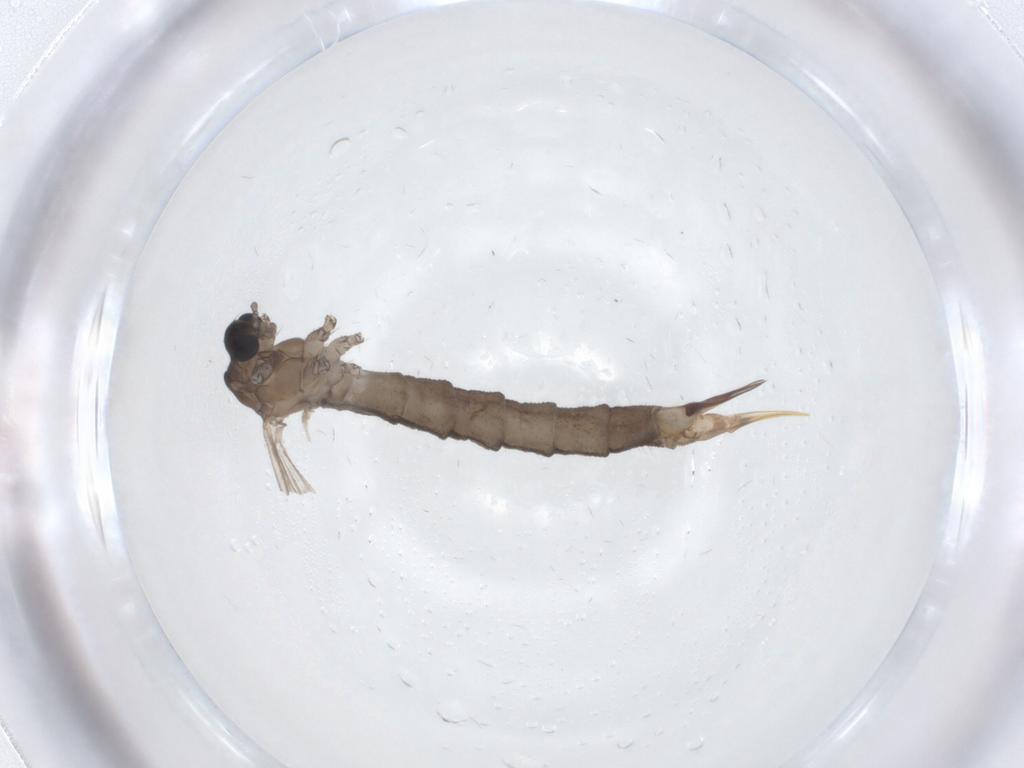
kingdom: Animalia
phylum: Arthropoda
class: Insecta
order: Diptera
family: Limoniidae
